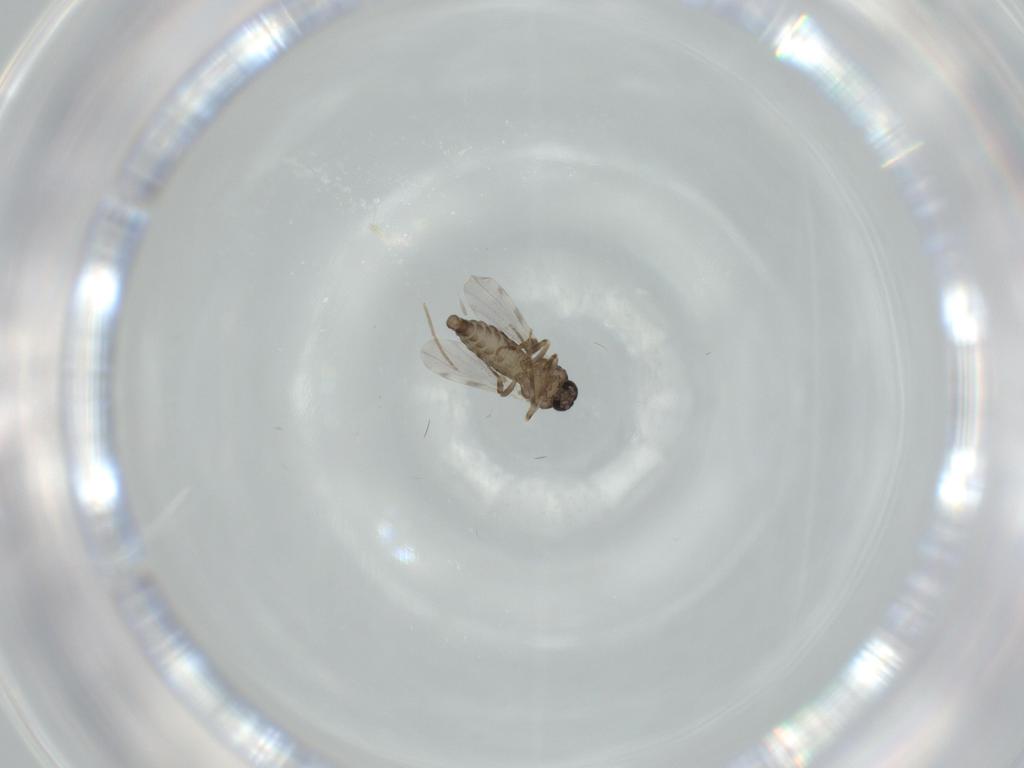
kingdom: Animalia
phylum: Arthropoda
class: Insecta
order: Diptera
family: Ceratopogonidae
